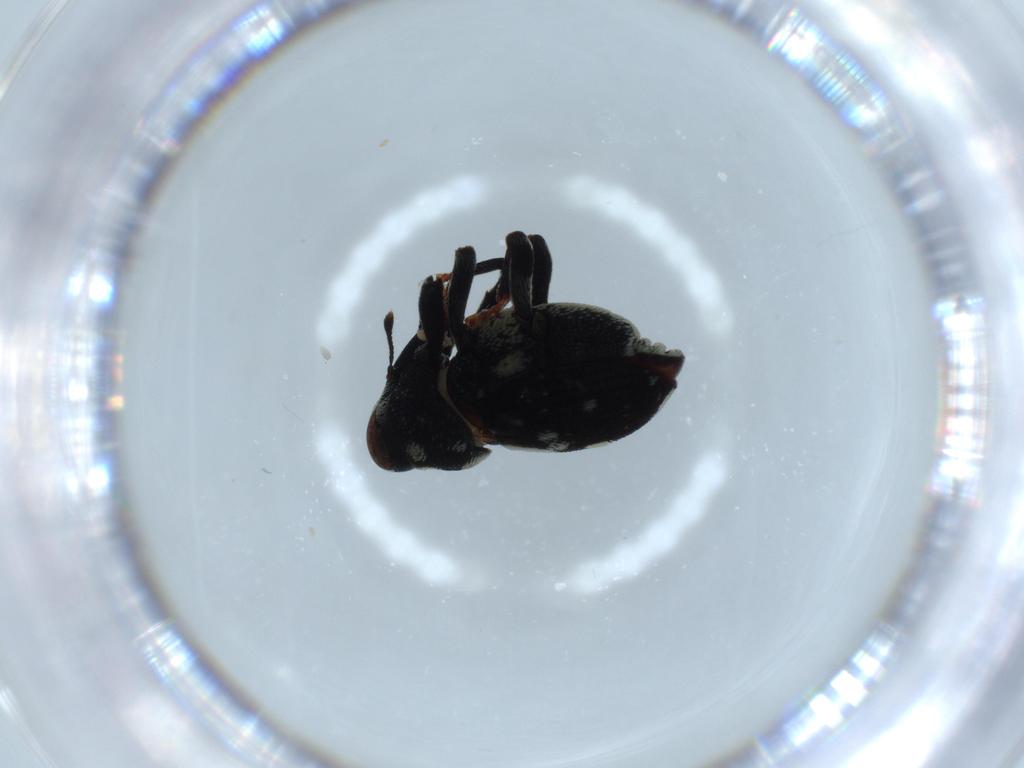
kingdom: Animalia
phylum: Arthropoda
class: Insecta
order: Coleoptera
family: Curculionidae
